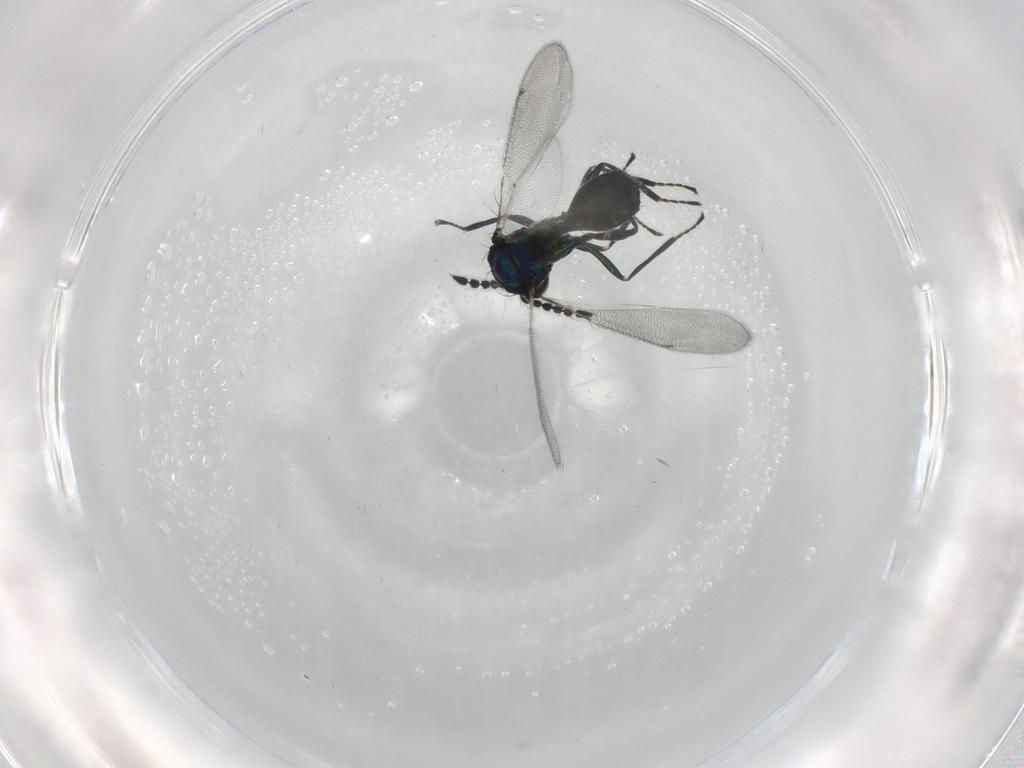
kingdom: Animalia
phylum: Arthropoda
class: Insecta
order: Hymenoptera
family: Eulophidae
